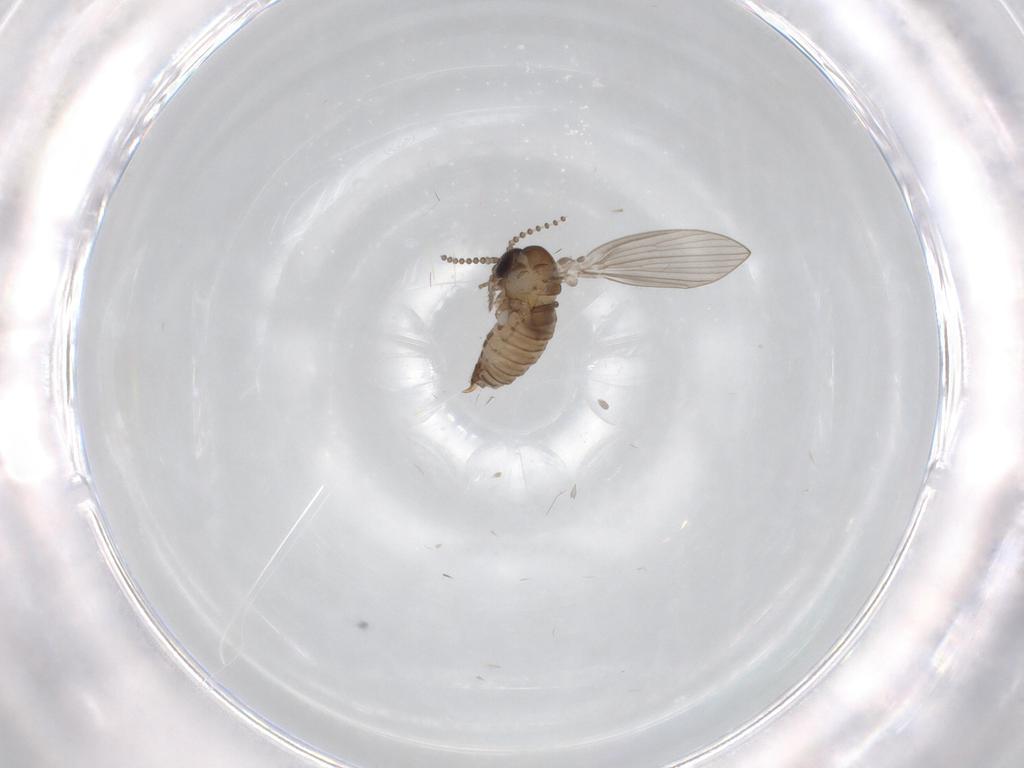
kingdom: Animalia
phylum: Arthropoda
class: Insecta
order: Diptera
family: Psychodidae
